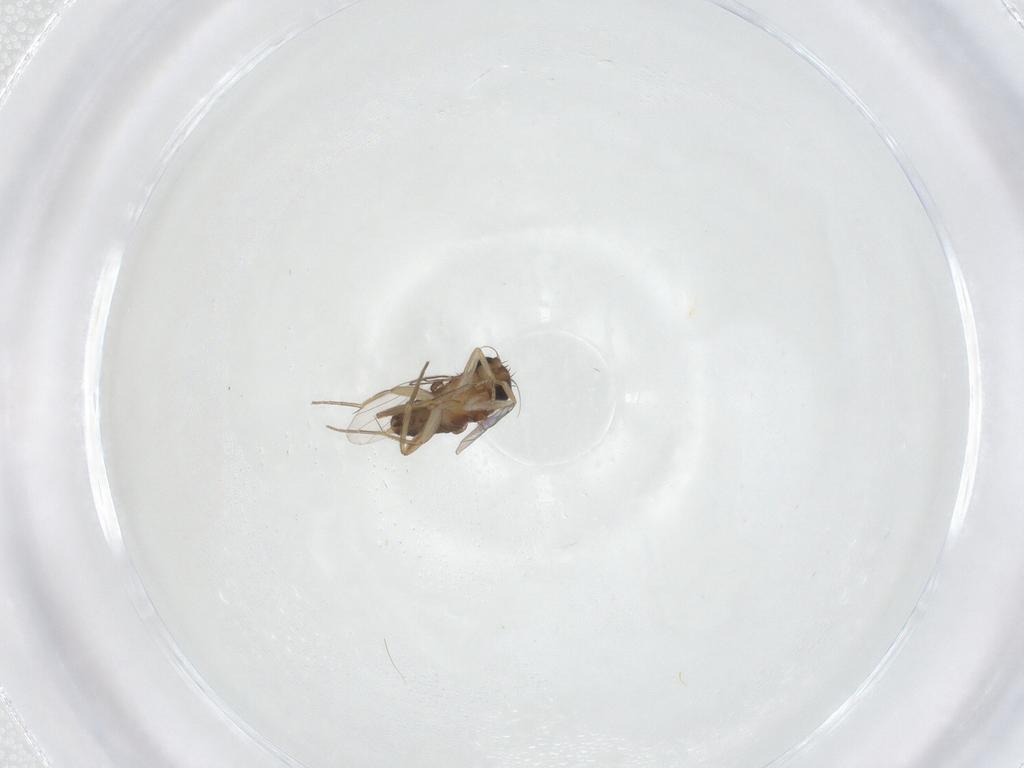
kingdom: Animalia
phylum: Arthropoda
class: Insecta
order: Diptera
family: Phoridae
